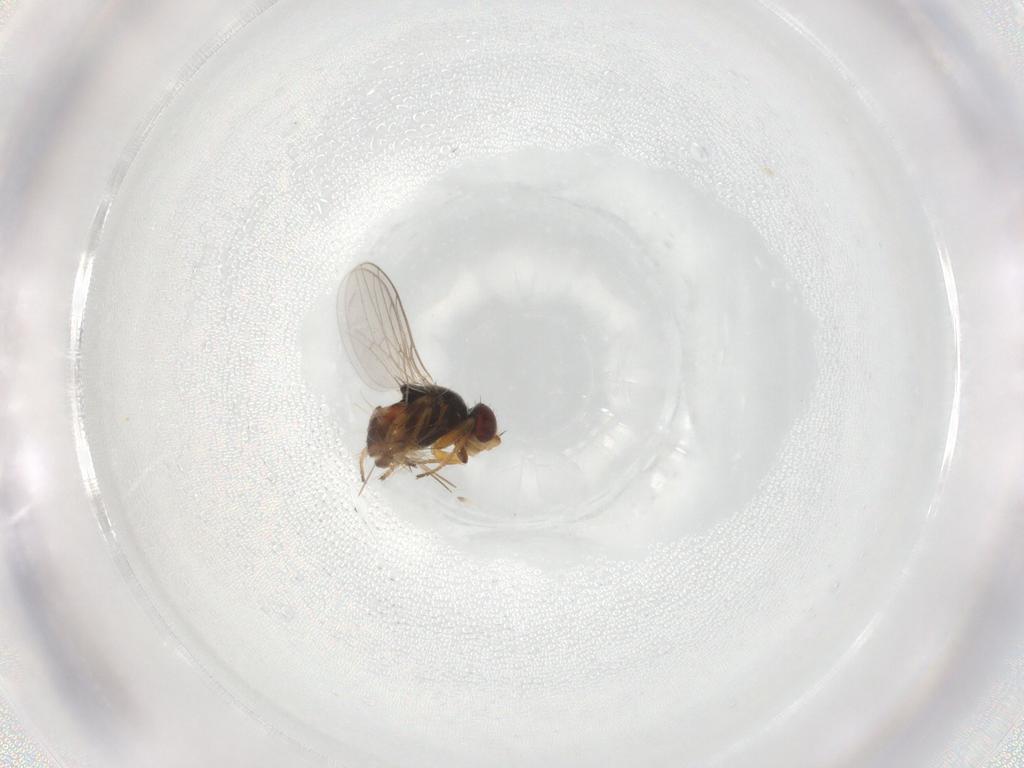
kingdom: Animalia
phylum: Arthropoda
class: Insecta
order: Diptera
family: Cecidomyiidae
